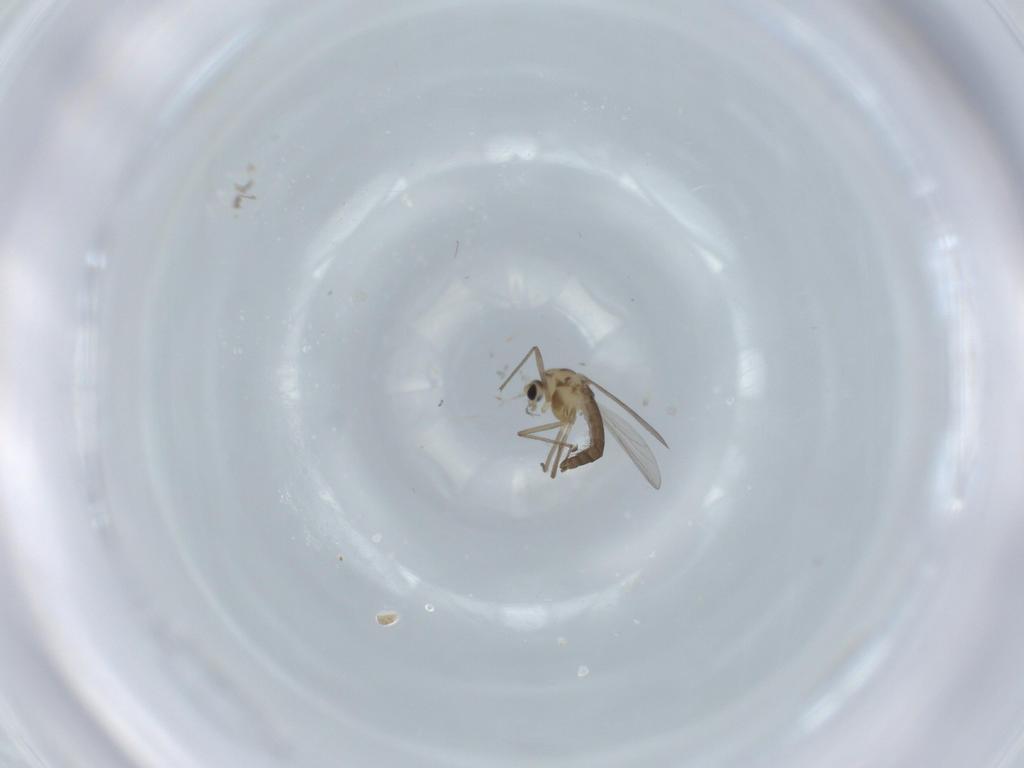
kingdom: Animalia
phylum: Arthropoda
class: Insecta
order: Diptera
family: Chironomidae
